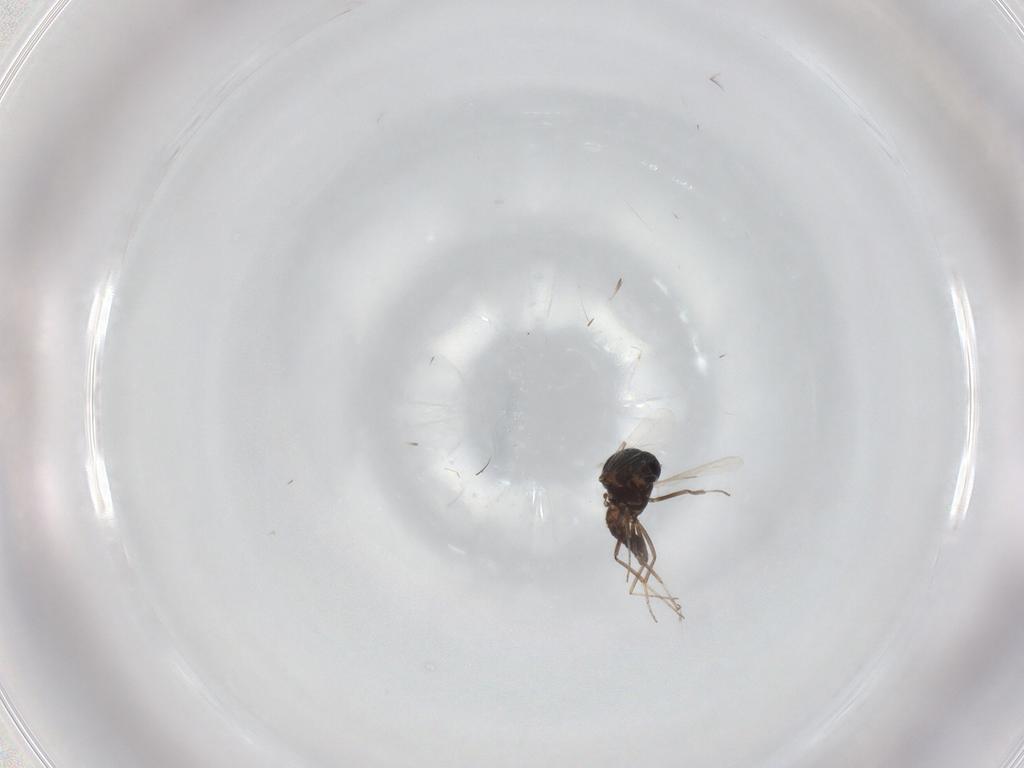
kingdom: Animalia
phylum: Arthropoda
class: Insecta
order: Diptera
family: Ceratopogonidae
